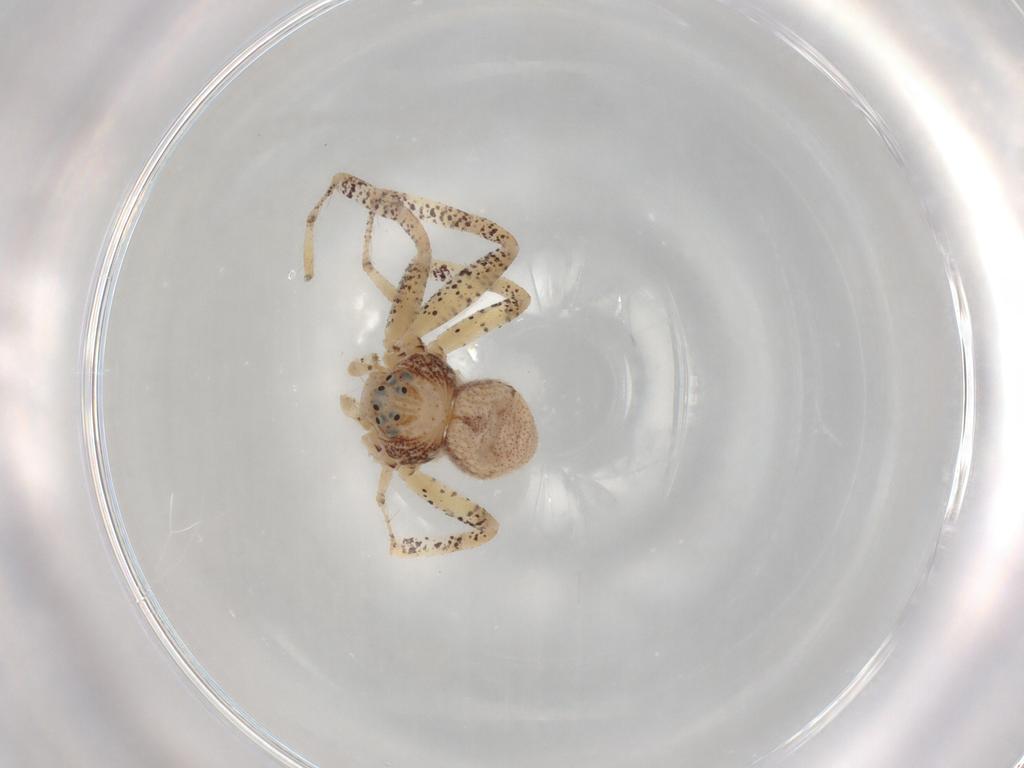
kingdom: Animalia
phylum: Arthropoda
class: Arachnida
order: Araneae
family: Philodromidae
